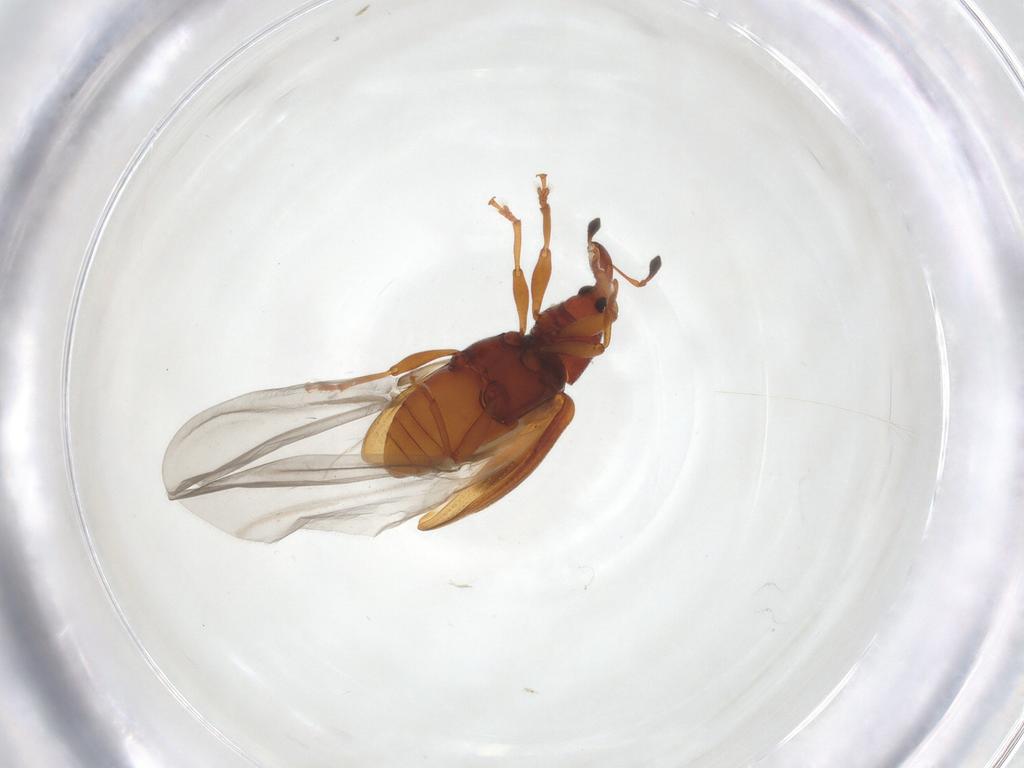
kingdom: Animalia
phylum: Arthropoda
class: Insecta
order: Coleoptera
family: Curculionidae
